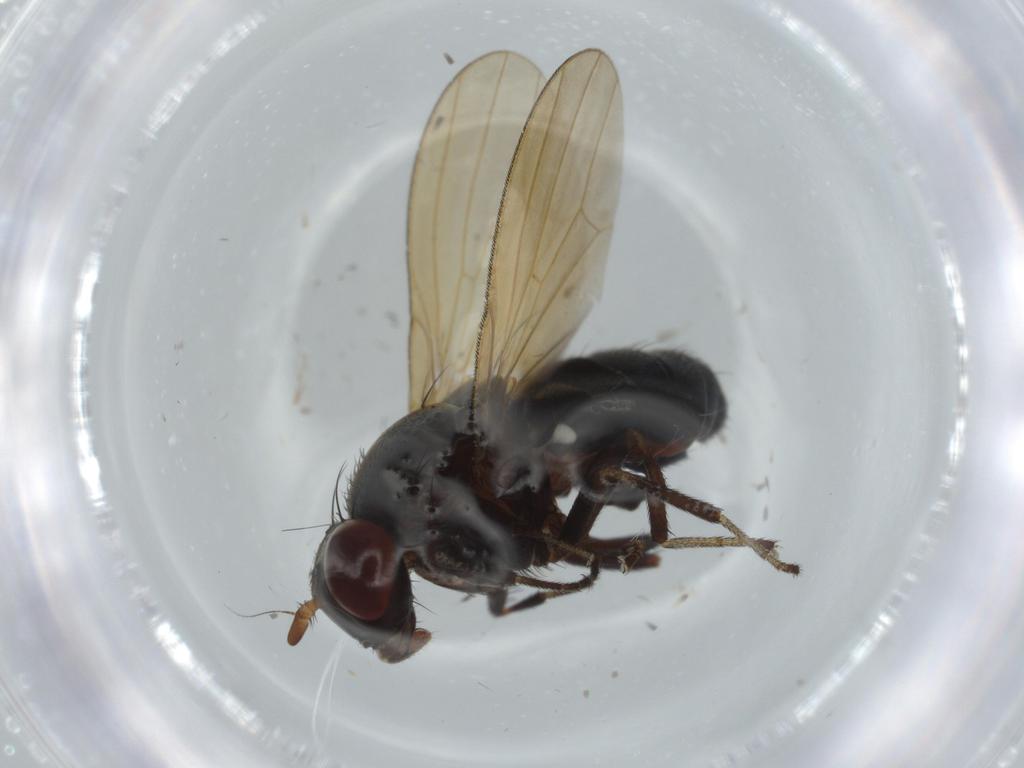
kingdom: Animalia
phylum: Arthropoda
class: Insecta
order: Diptera
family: Lauxaniidae
